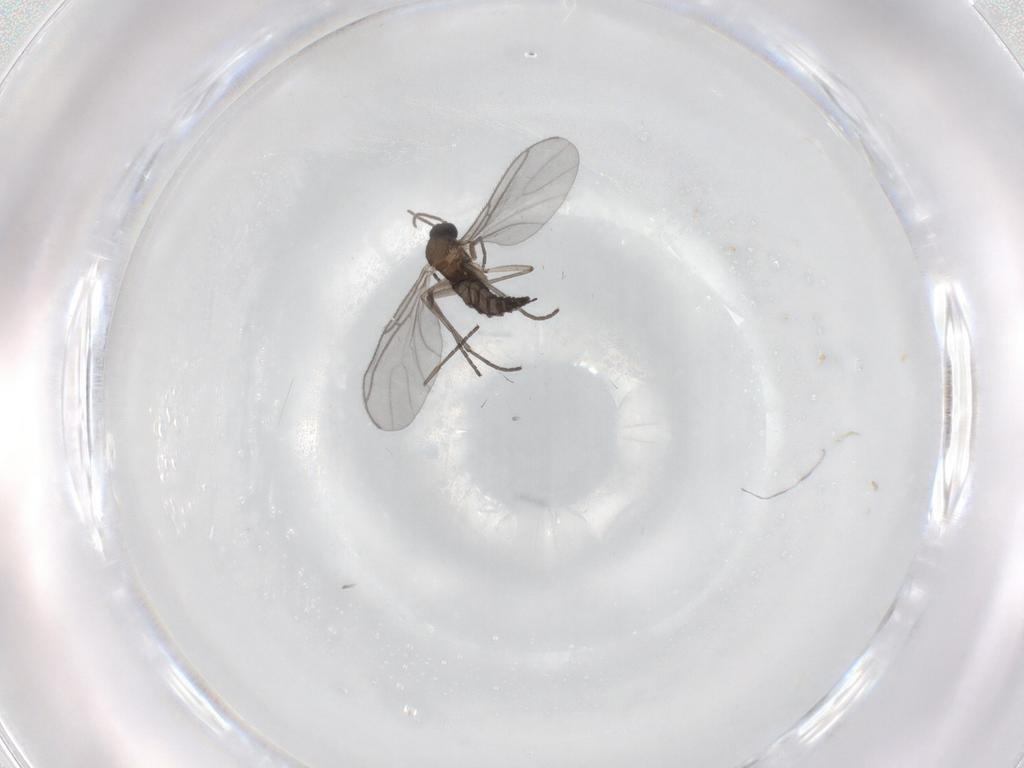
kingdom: Animalia
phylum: Arthropoda
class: Insecta
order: Diptera
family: Sciaridae
